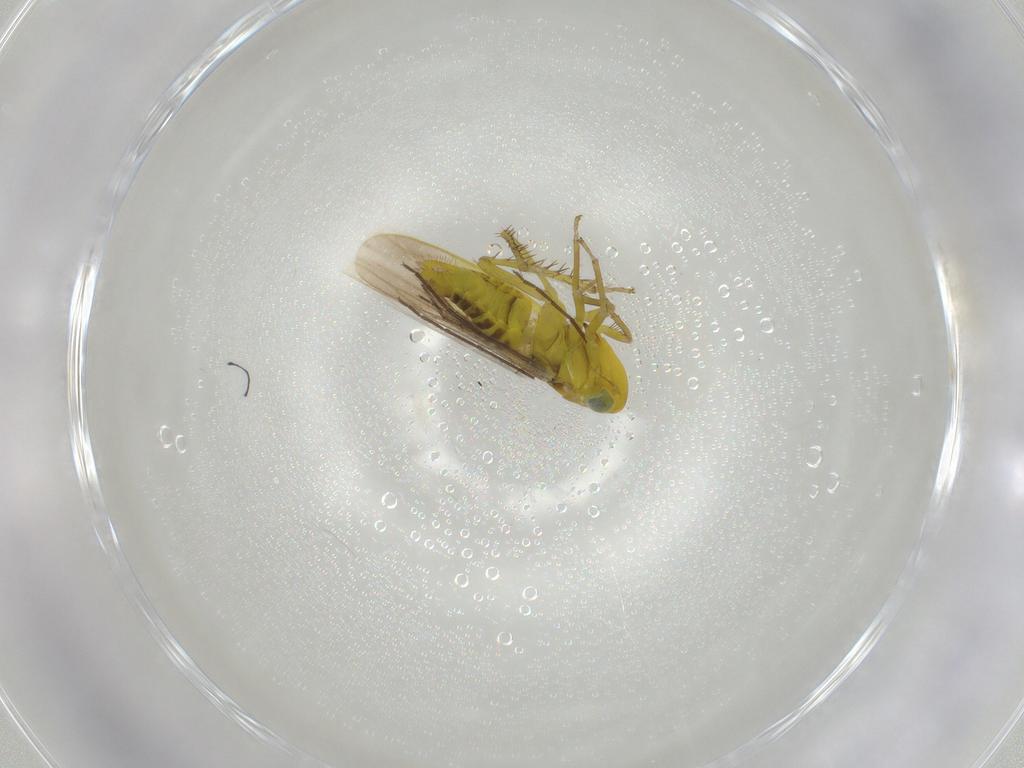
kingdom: Animalia
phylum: Arthropoda
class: Insecta
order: Hemiptera
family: Cicadellidae
